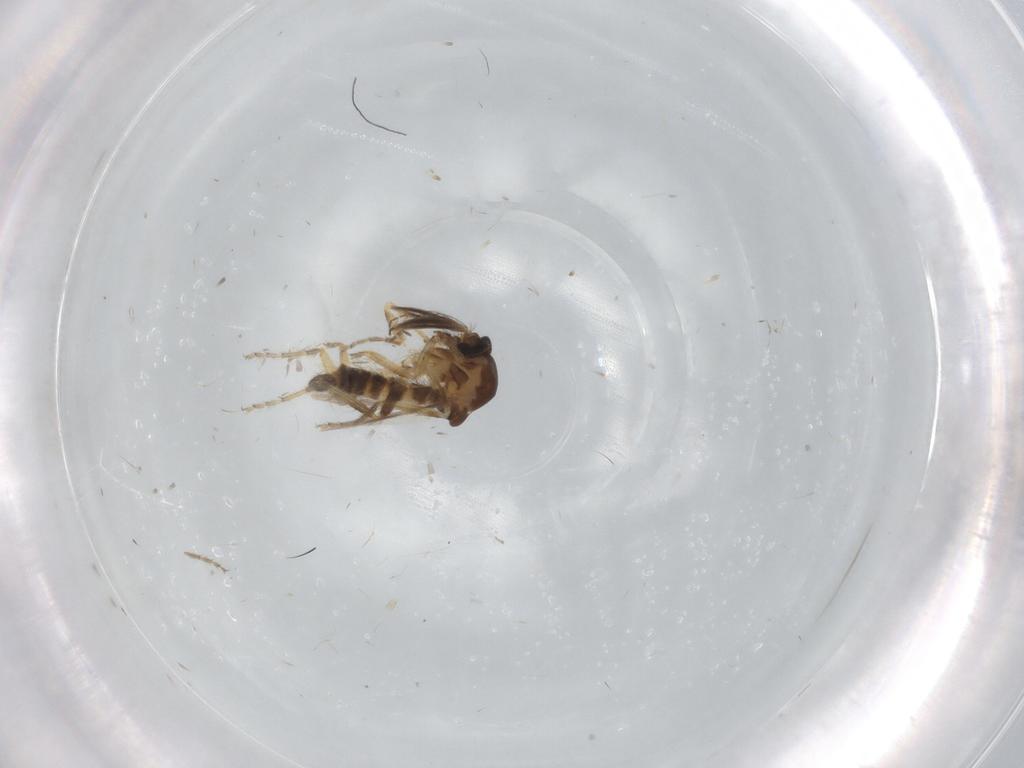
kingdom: Animalia
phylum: Arthropoda
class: Insecta
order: Diptera
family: Ceratopogonidae
